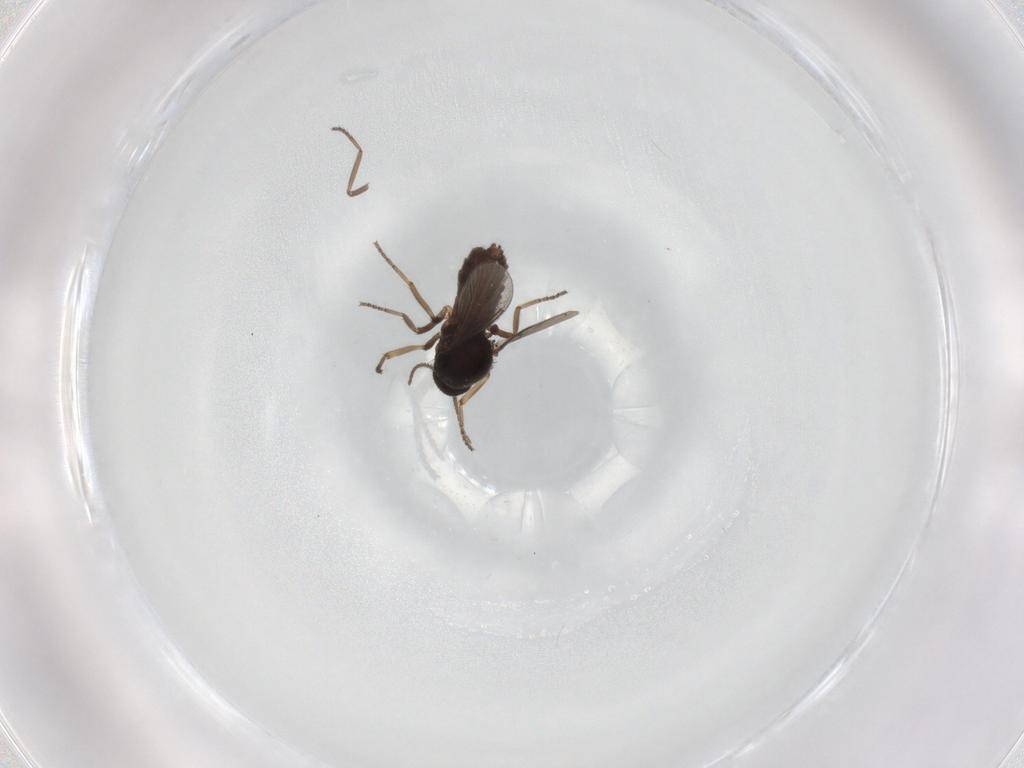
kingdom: Animalia
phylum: Arthropoda
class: Insecta
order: Diptera
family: Ceratopogonidae
